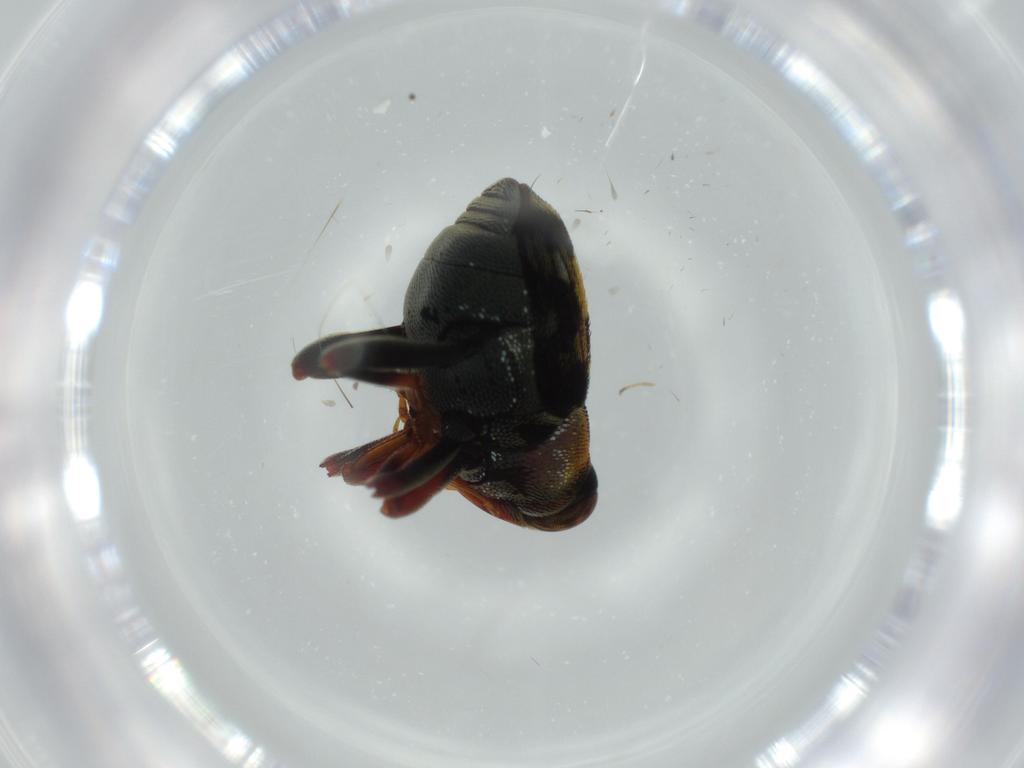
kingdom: Animalia
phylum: Arthropoda
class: Insecta
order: Coleoptera
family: Curculionidae
